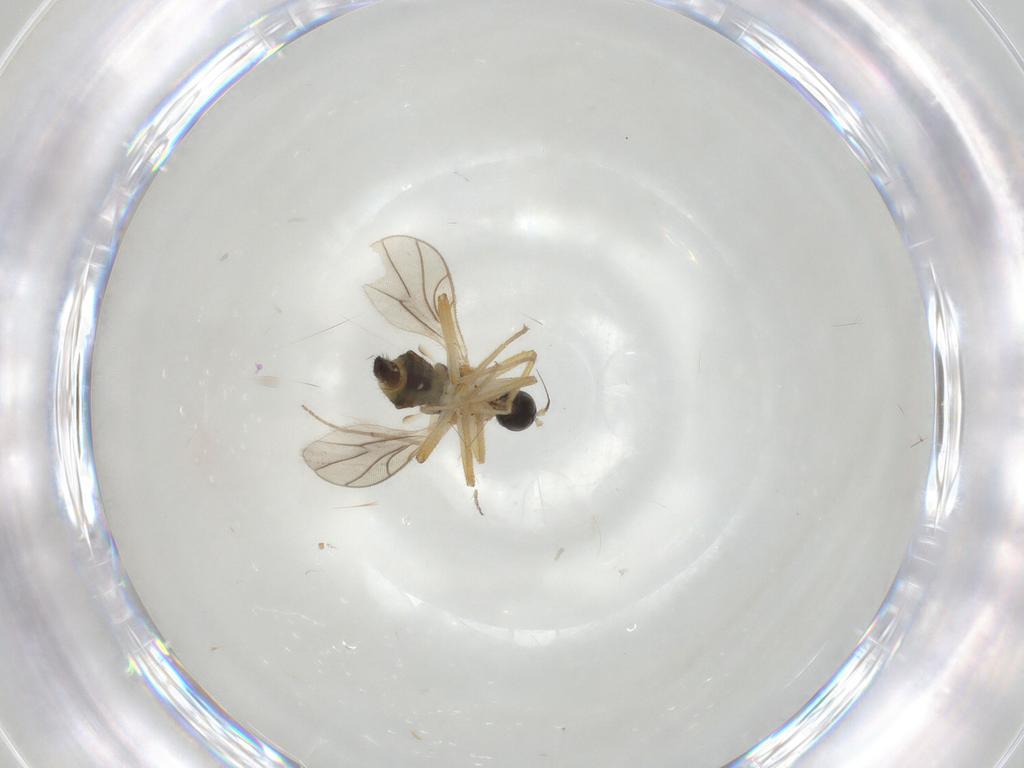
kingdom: Animalia
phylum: Arthropoda
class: Insecta
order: Diptera
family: Hybotidae
